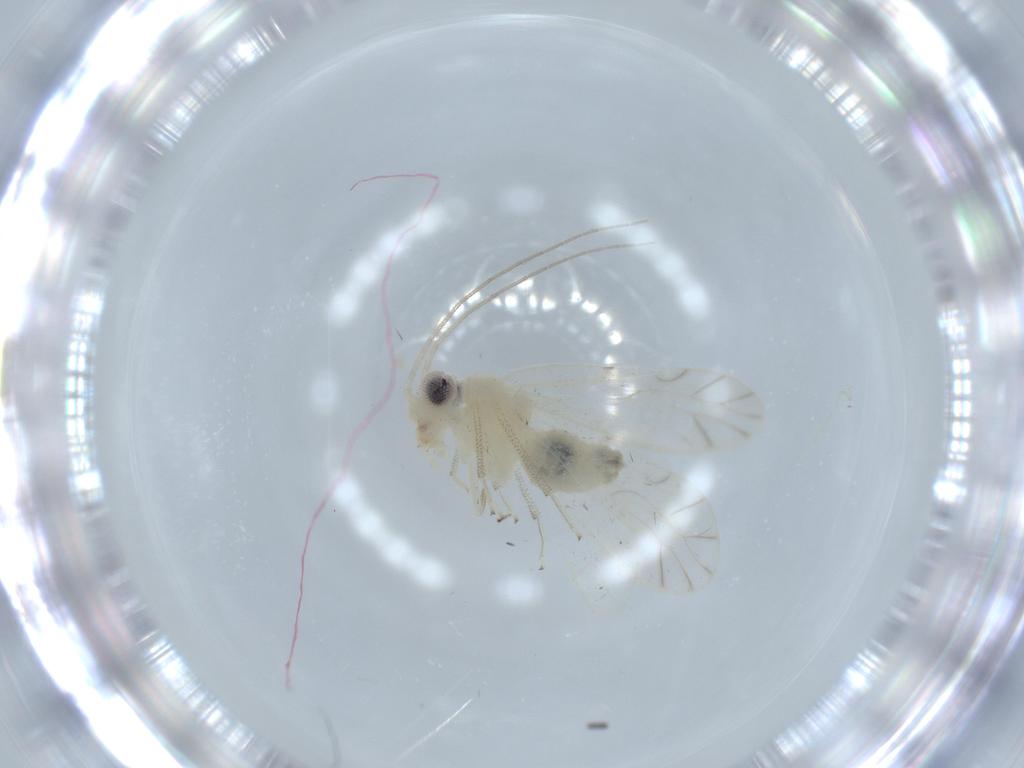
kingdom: Animalia
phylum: Arthropoda
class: Insecta
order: Psocodea
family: Caeciliusidae
